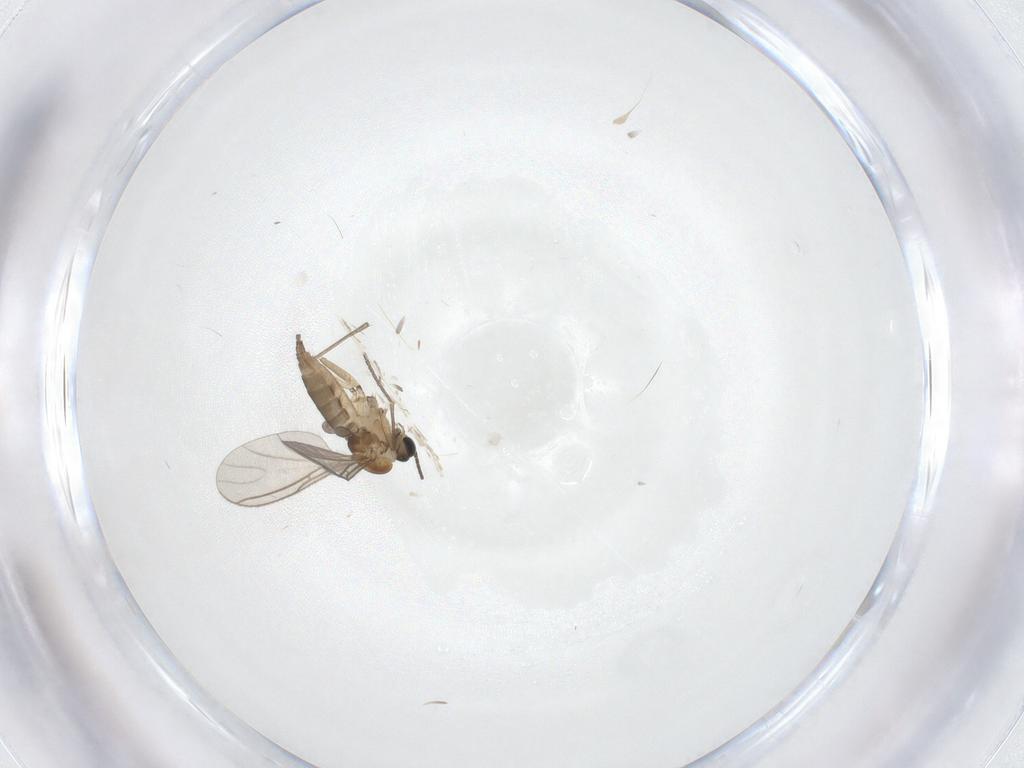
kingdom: Animalia
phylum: Arthropoda
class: Insecta
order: Diptera
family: Sciaridae
